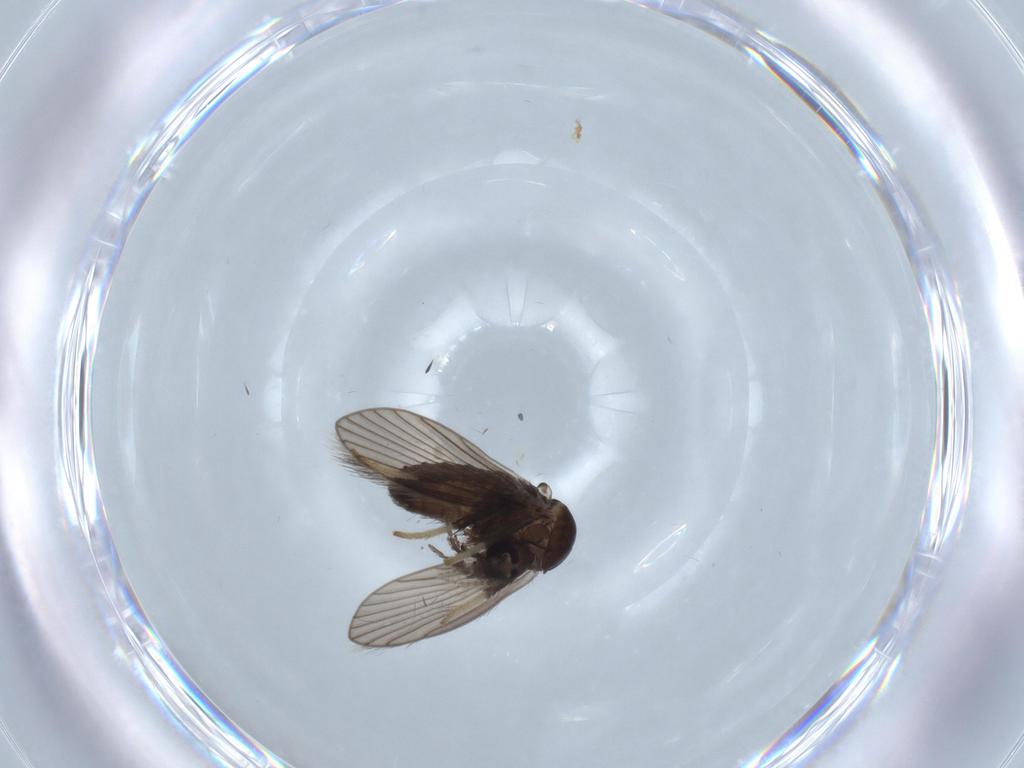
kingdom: Animalia
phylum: Arthropoda
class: Insecta
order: Diptera
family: Psychodidae
